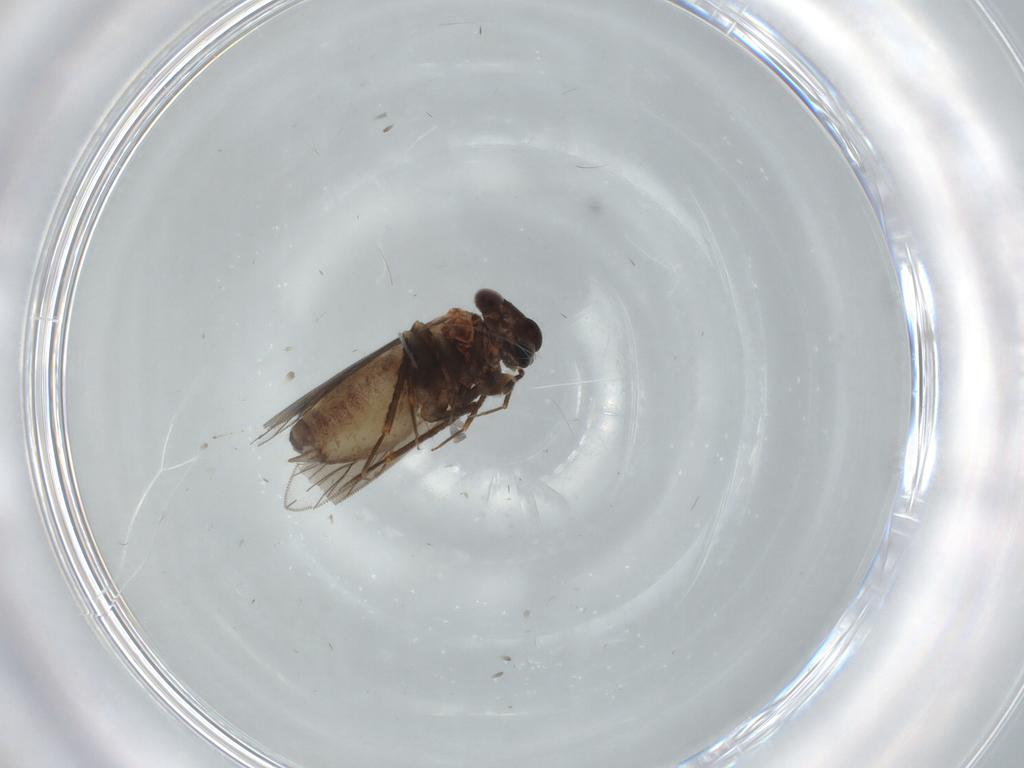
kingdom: Animalia
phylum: Arthropoda
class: Insecta
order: Psocodea
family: Lepidopsocidae
